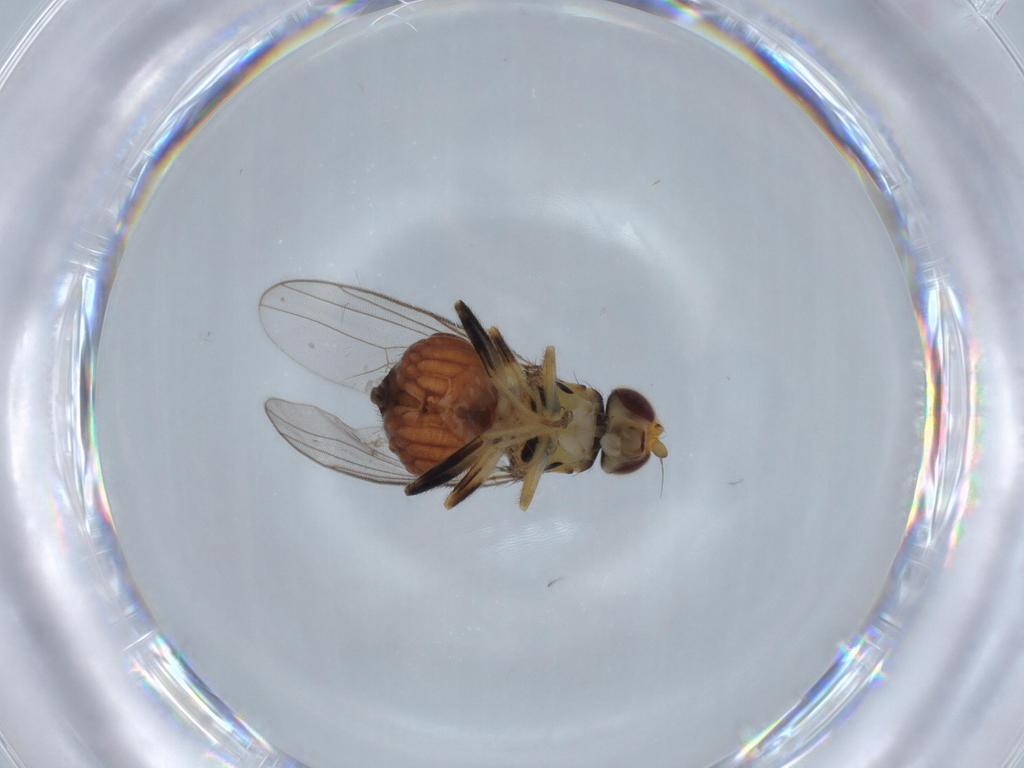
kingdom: Animalia
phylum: Arthropoda
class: Insecta
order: Diptera
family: Chloropidae
